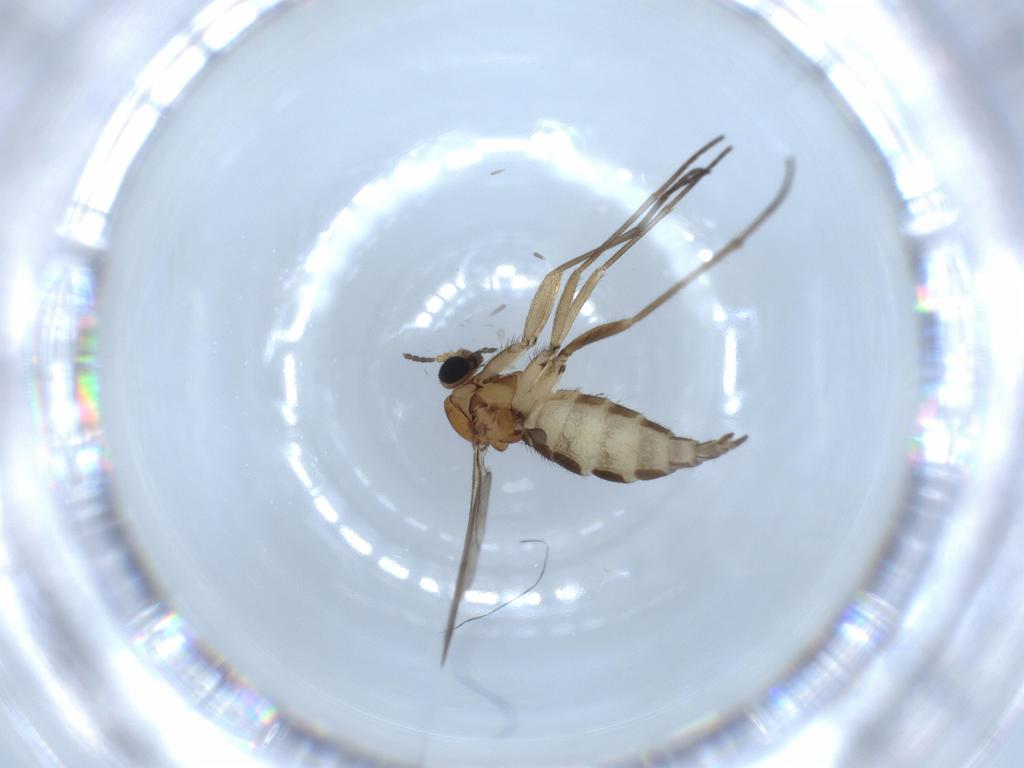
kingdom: Animalia
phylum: Arthropoda
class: Insecta
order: Diptera
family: Sciaridae
